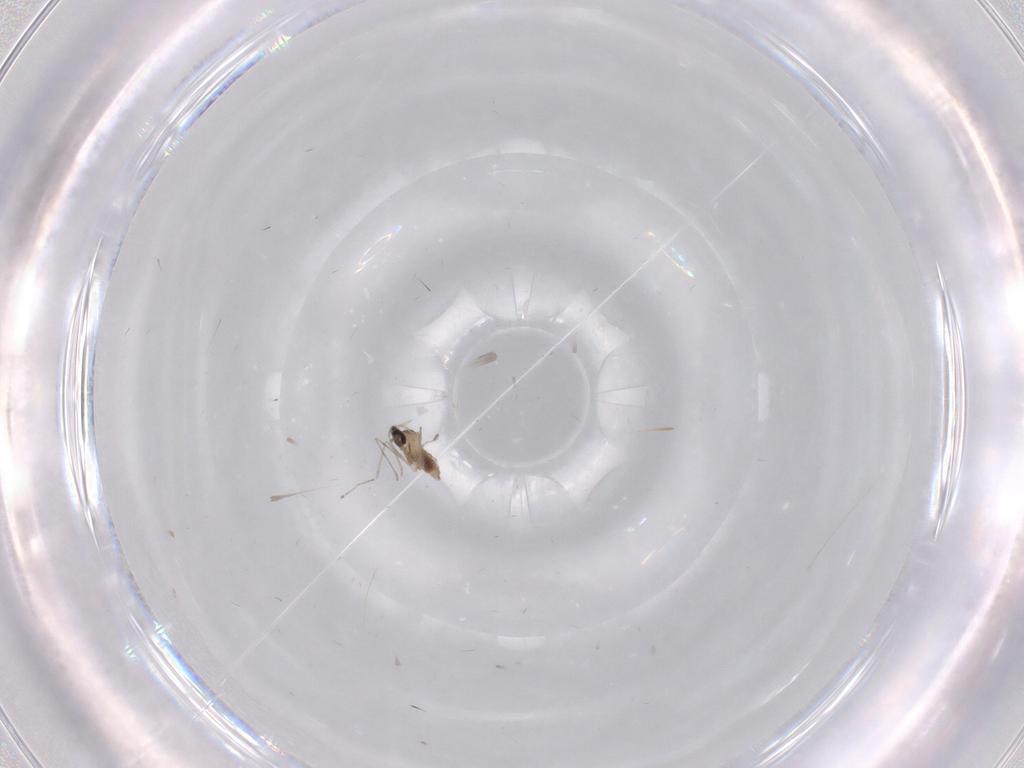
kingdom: Animalia
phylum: Arthropoda
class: Insecta
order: Diptera
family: Cecidomyiidae
